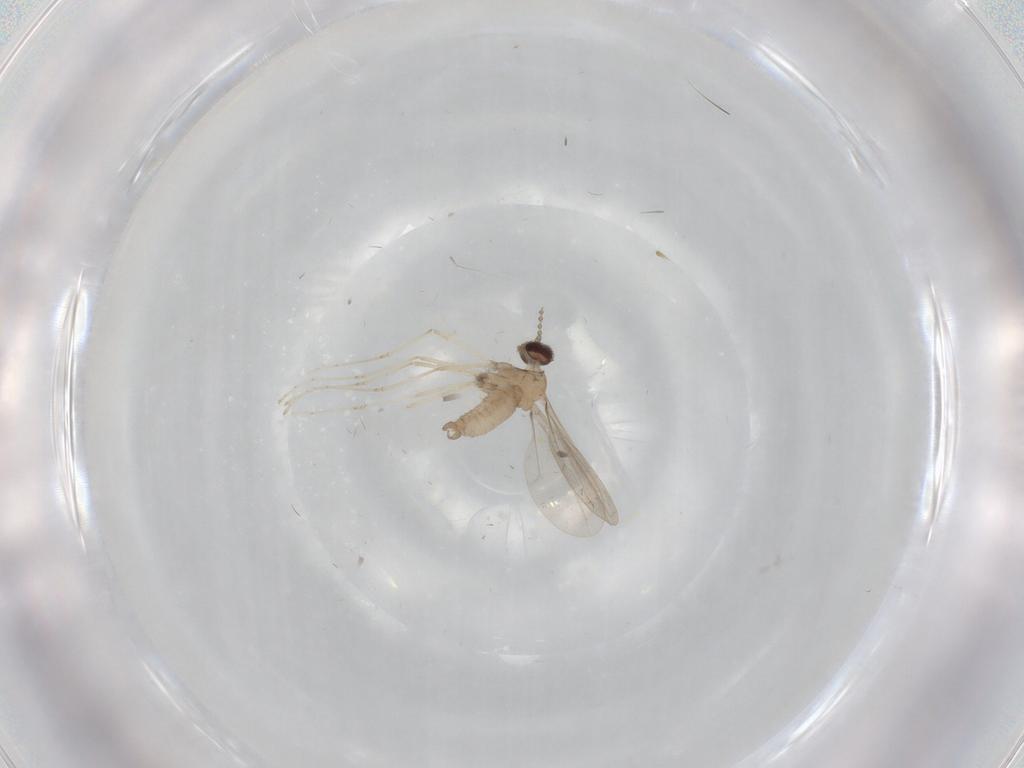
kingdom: Animalia
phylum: Arthropoda
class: Insecta
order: Diptera
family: Cecidomyiidae
